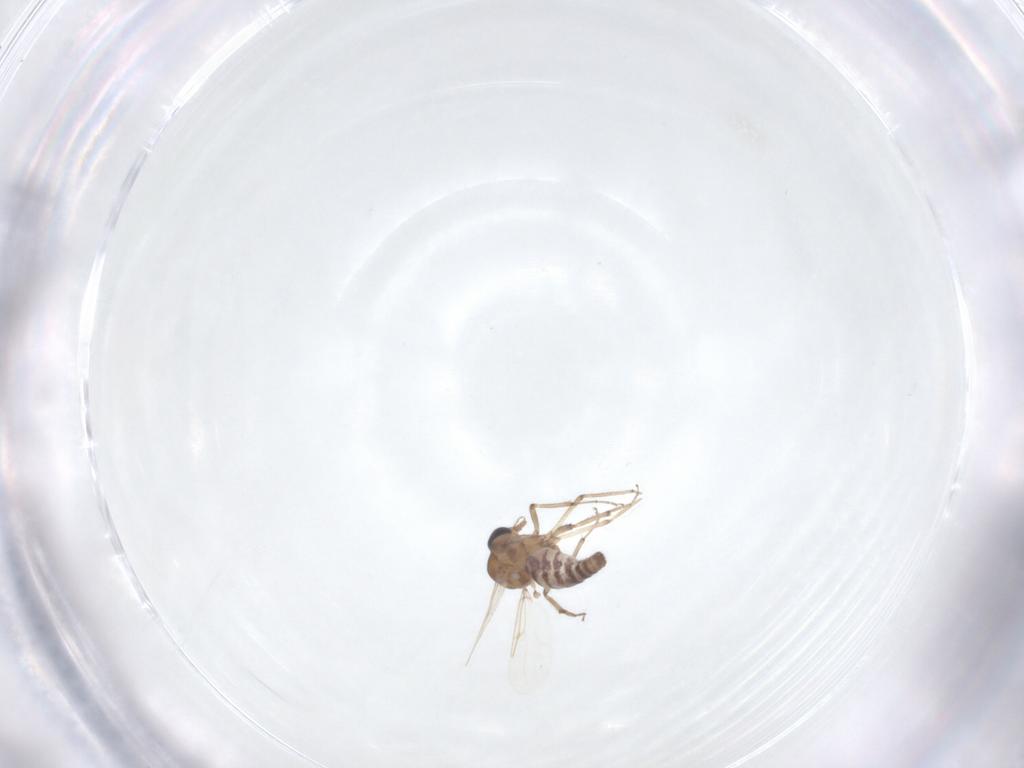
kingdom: Animalia
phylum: Arthropoda
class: Insecta
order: Diptera
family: Ceratopogonidae
